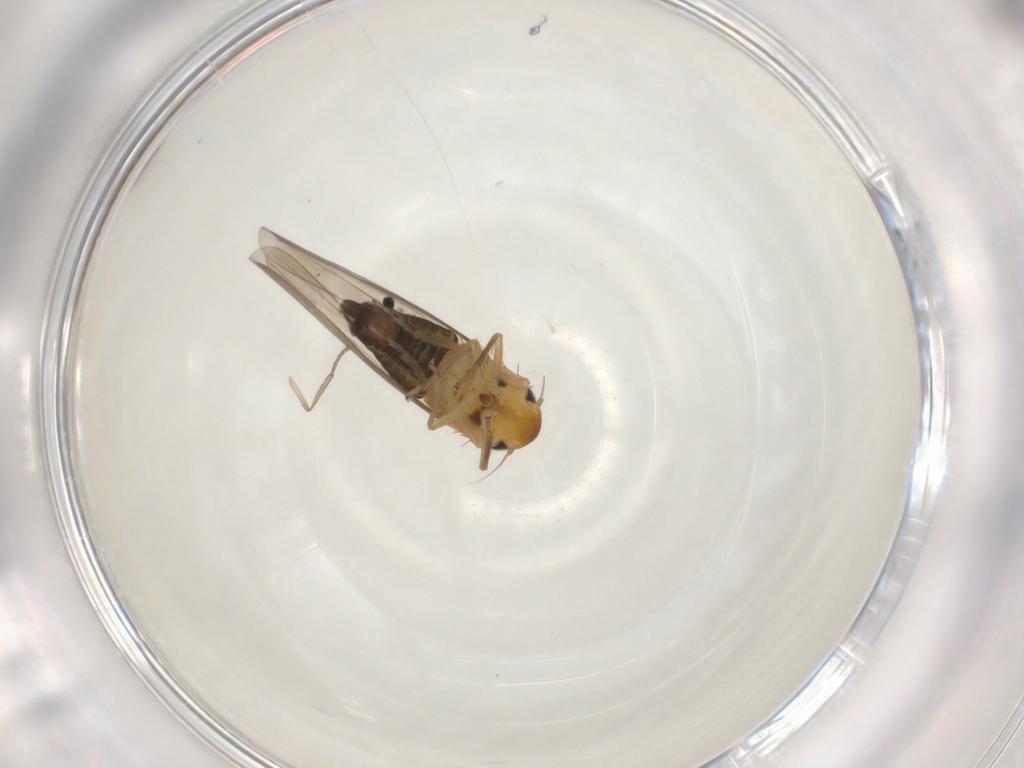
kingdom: Animalia
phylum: Arthropoda
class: Insecta
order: Hemiptera
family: Cicadellidae
